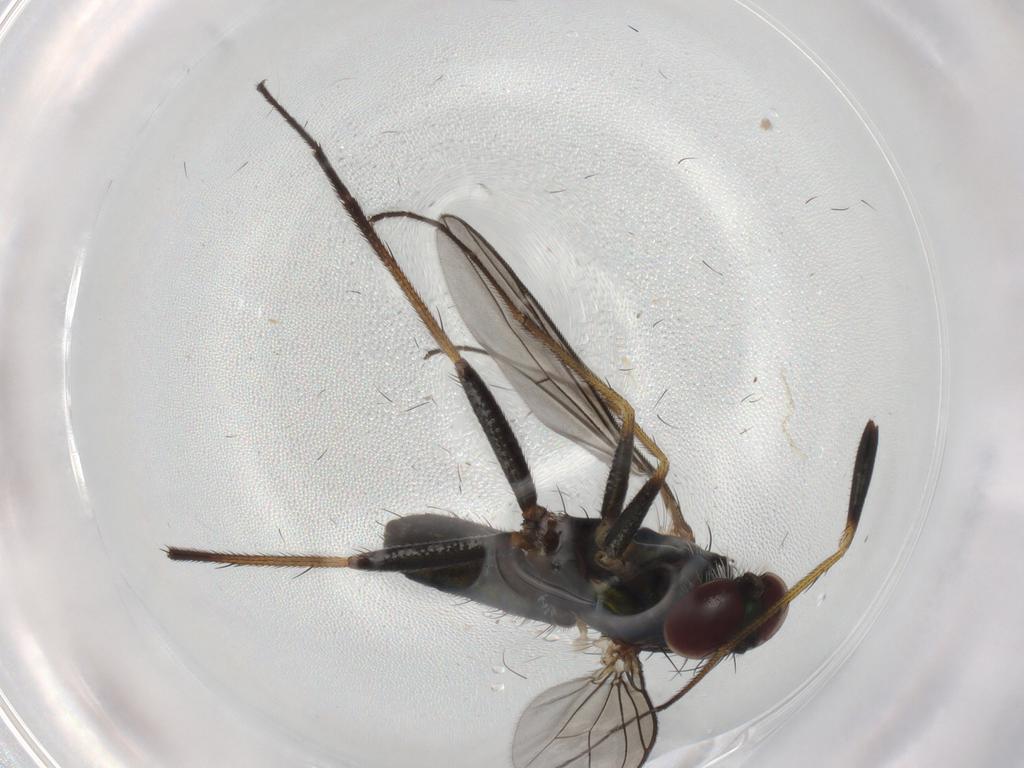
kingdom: Animalia
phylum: Arthropoda
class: Insecta
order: Diptera
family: Dolichopodidae
